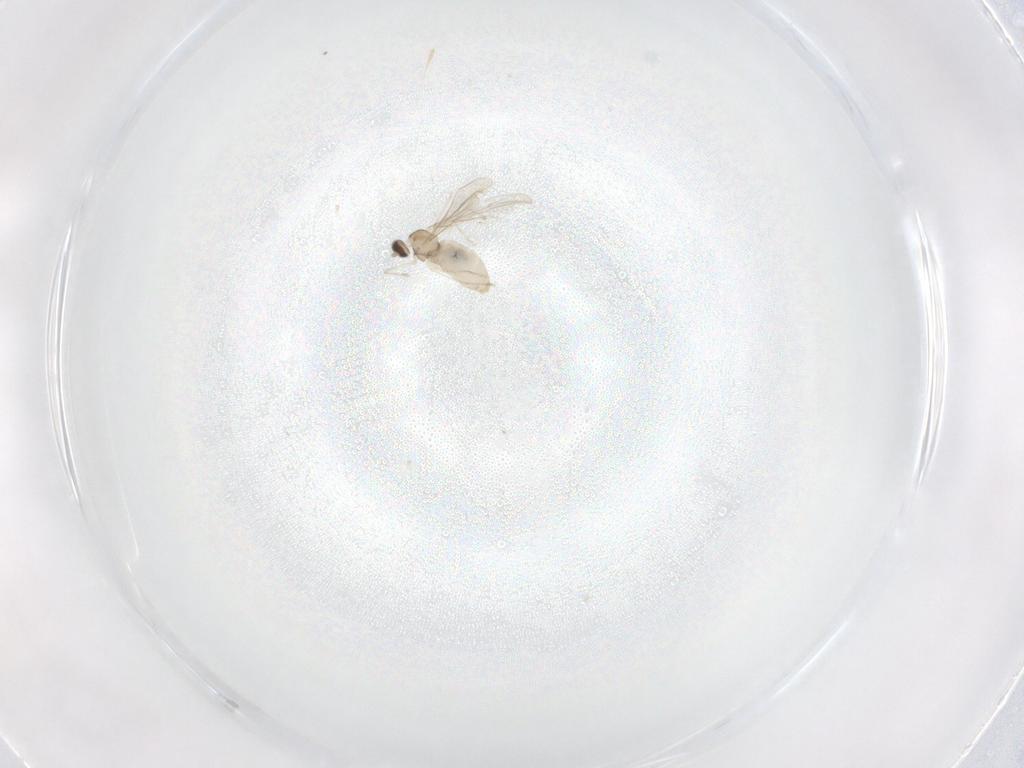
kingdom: Animalia
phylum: Arthropoda
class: Insecta
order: Diptera
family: Cecidomyiidae
